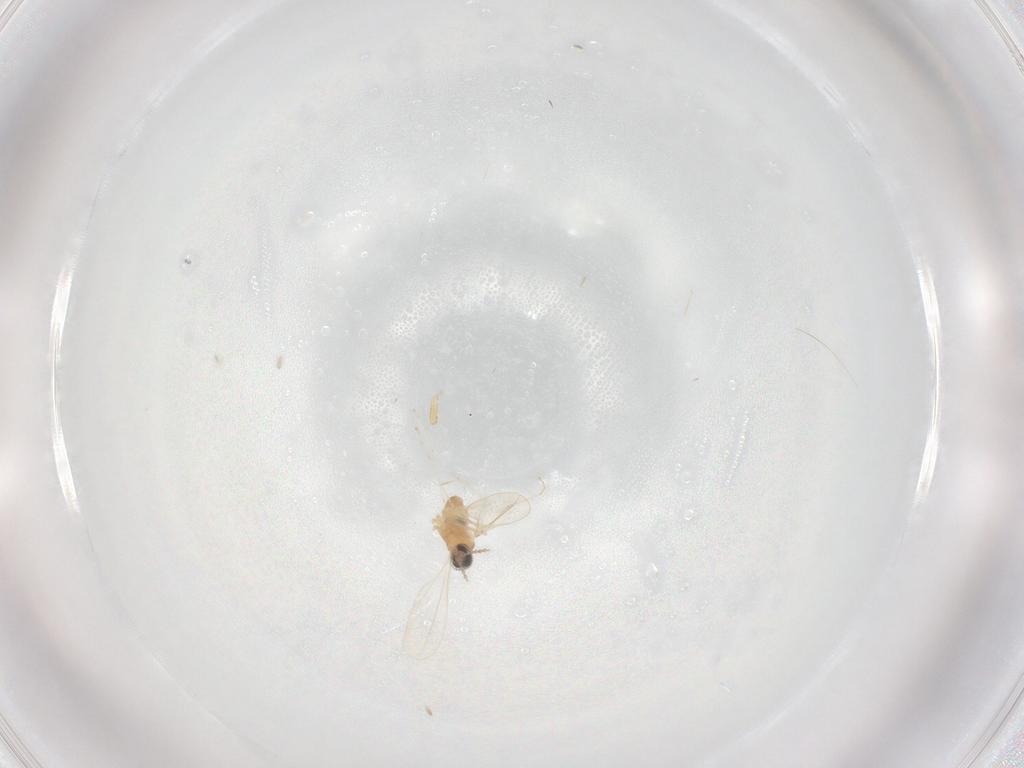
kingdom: Animalia
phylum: Arthropoda
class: Insecta
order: Diptera
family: Cecidomyiidae
